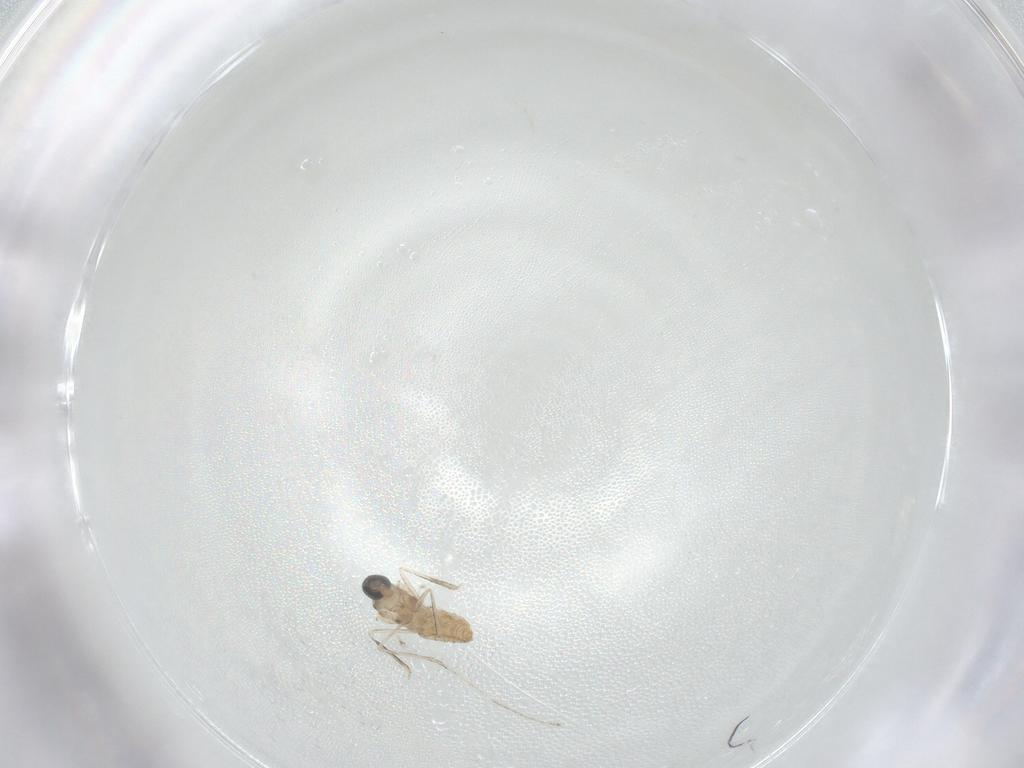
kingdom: Animalia
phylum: Arthropoda
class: Insecta
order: Diptera
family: Cecidomyiidae
